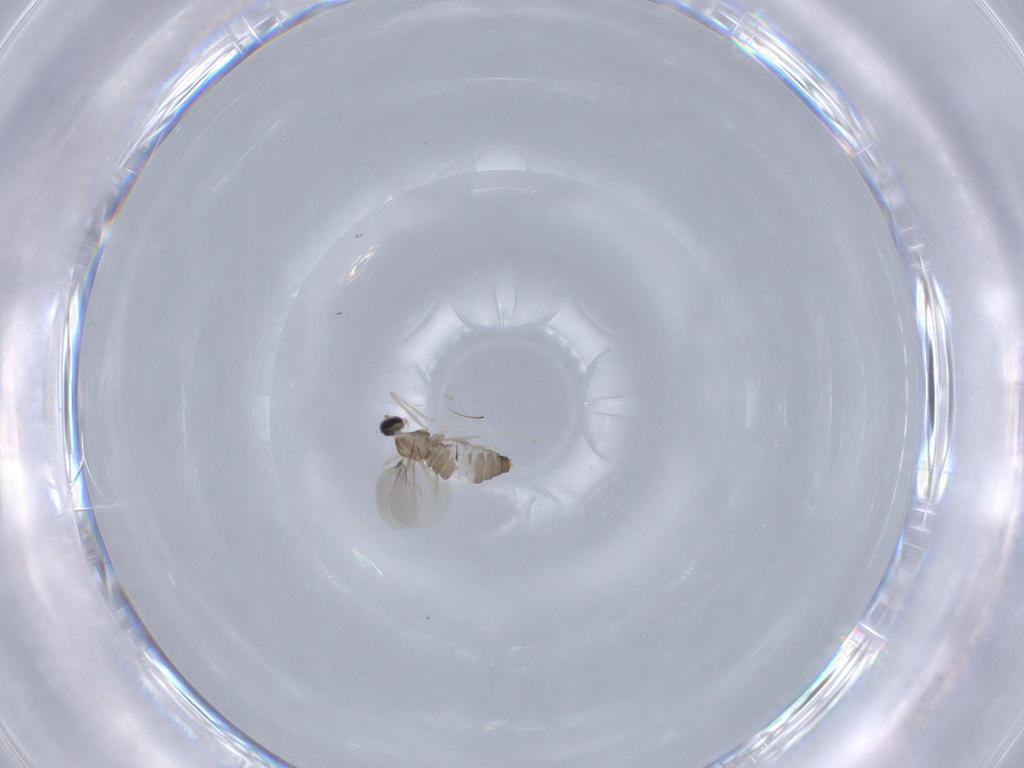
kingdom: Animalia
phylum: Arthropoda
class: Insecta
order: Diptera
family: Cecidomyiidae
